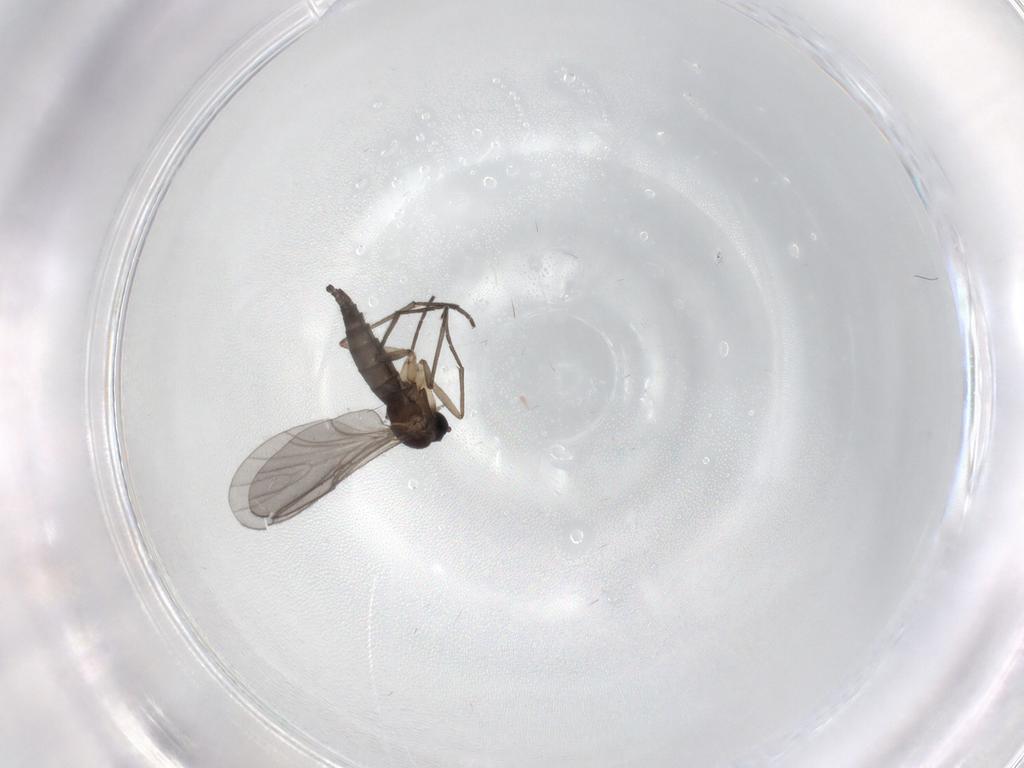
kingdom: Animalia
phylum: Arthropoda
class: Insecta
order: Diptera
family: Sciaridae
